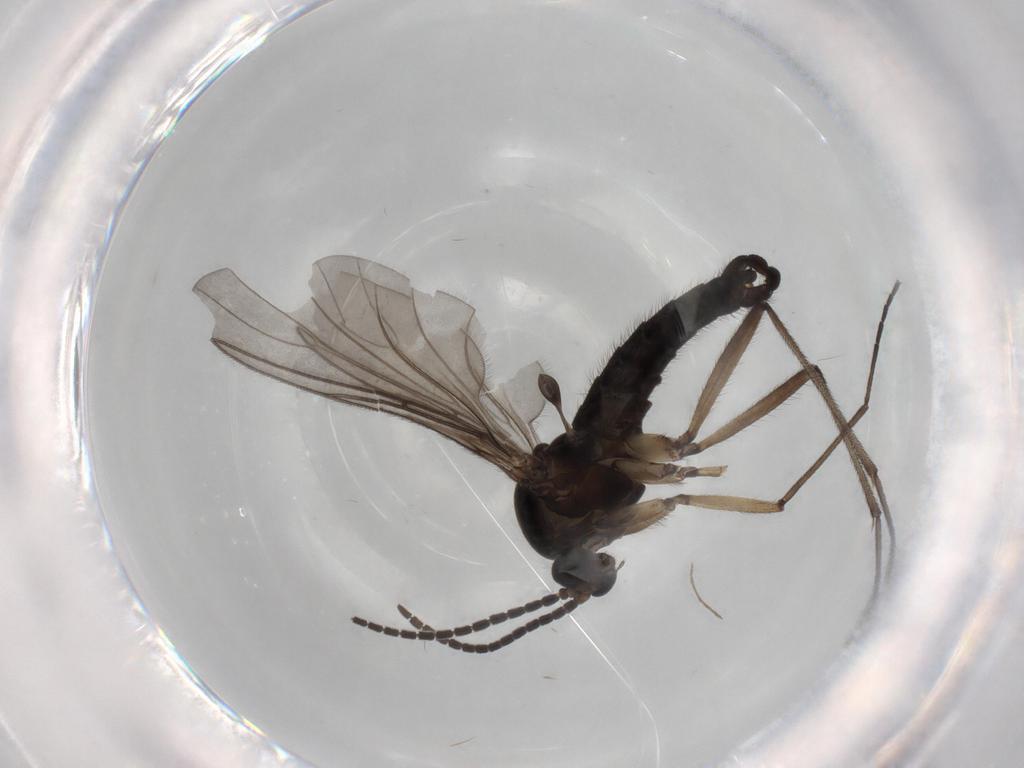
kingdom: Animalia
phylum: Arthropoda
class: Insecta
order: Diptera
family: Sciaridae
